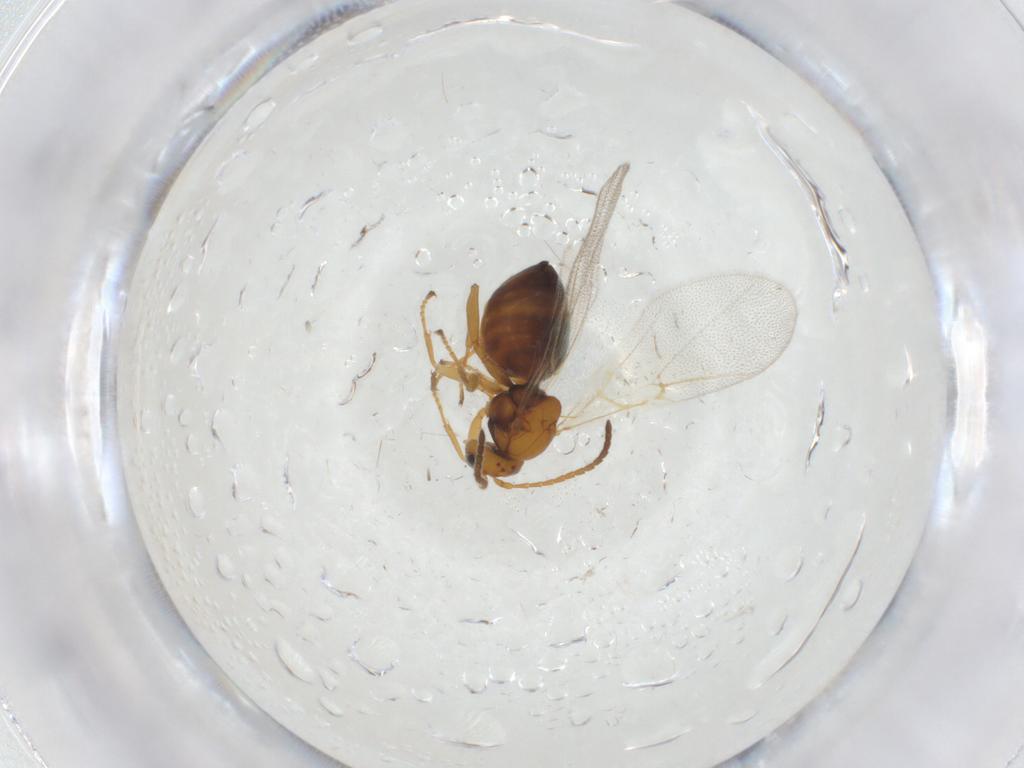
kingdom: Animalia
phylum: Arthropoda
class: Insecta
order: Hymenoptera
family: Cynipidae
